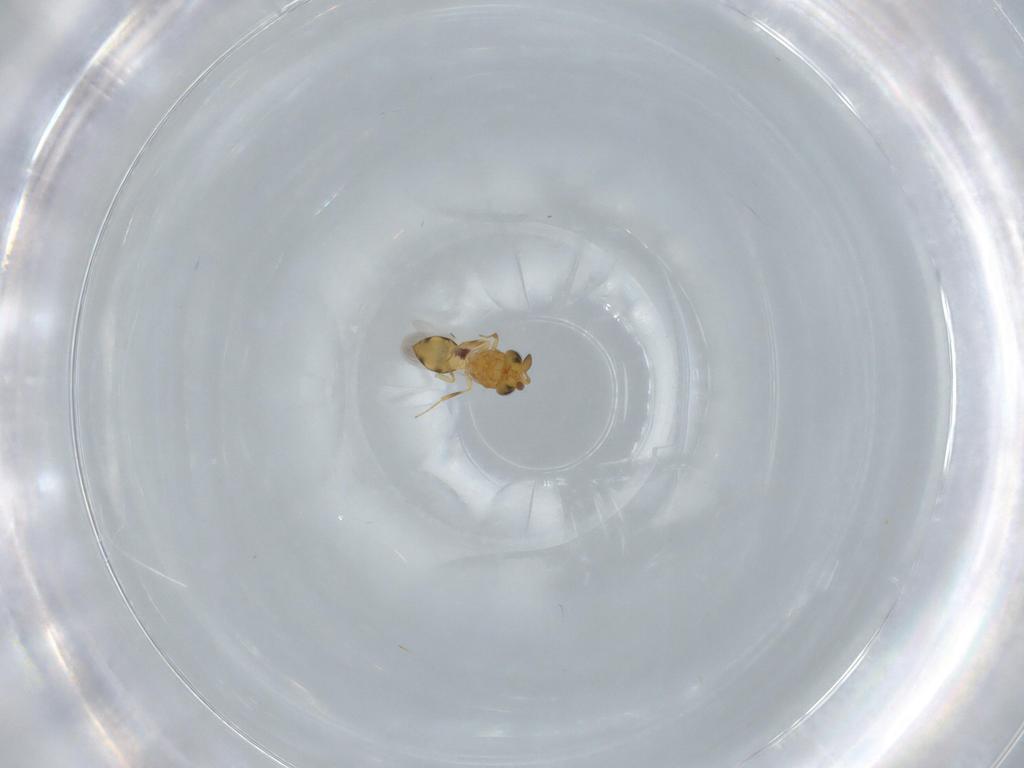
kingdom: Animalia
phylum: Arthropoda
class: Insecta
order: Hymenoptera
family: Scelionidae
